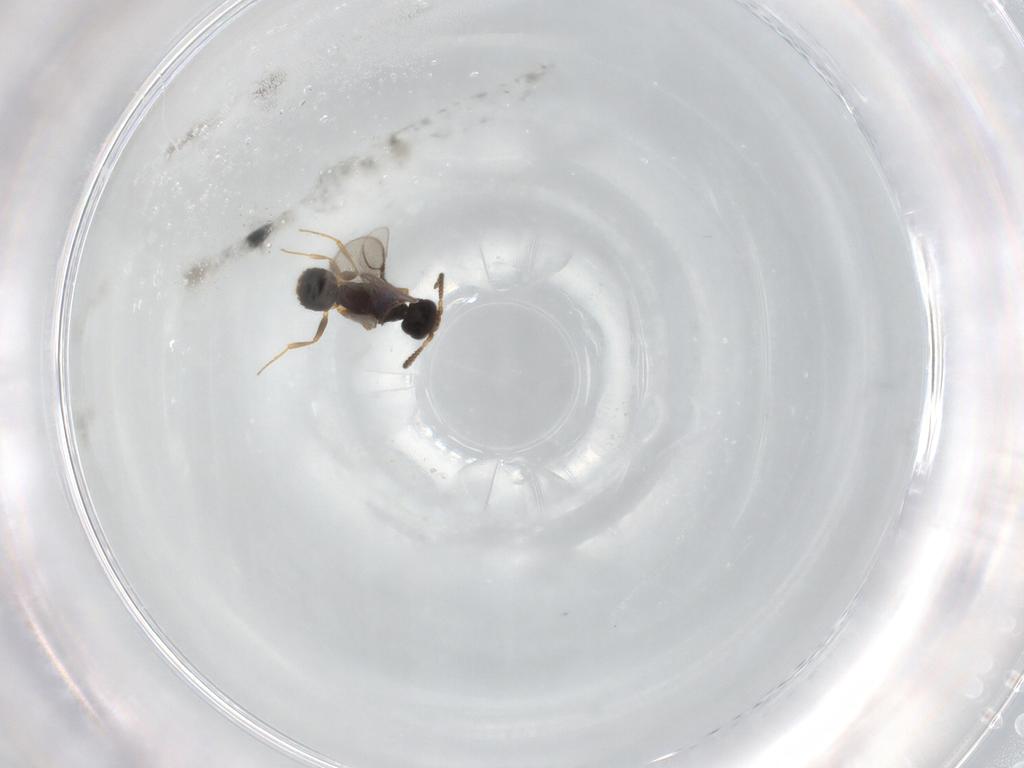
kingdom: Animalia
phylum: Arthropoda
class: Insecta
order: Hymenoptera
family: Bethylidae
